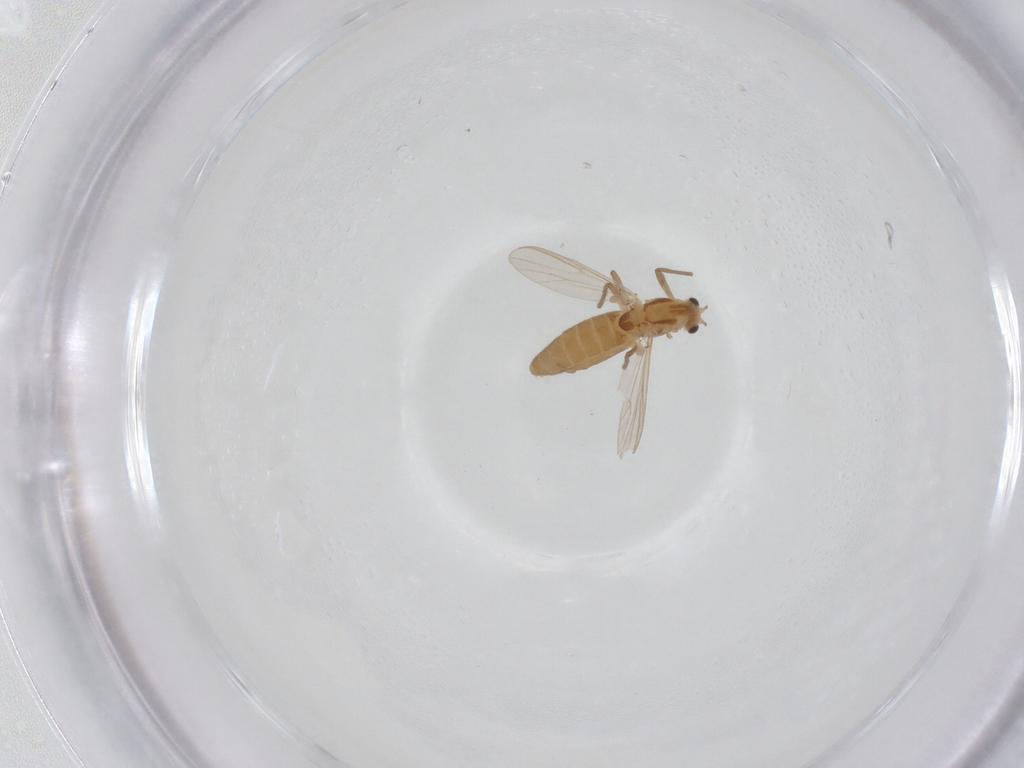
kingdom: Animalia
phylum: Arthropoda
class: Insecta
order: Diptera
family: Chironomidae
